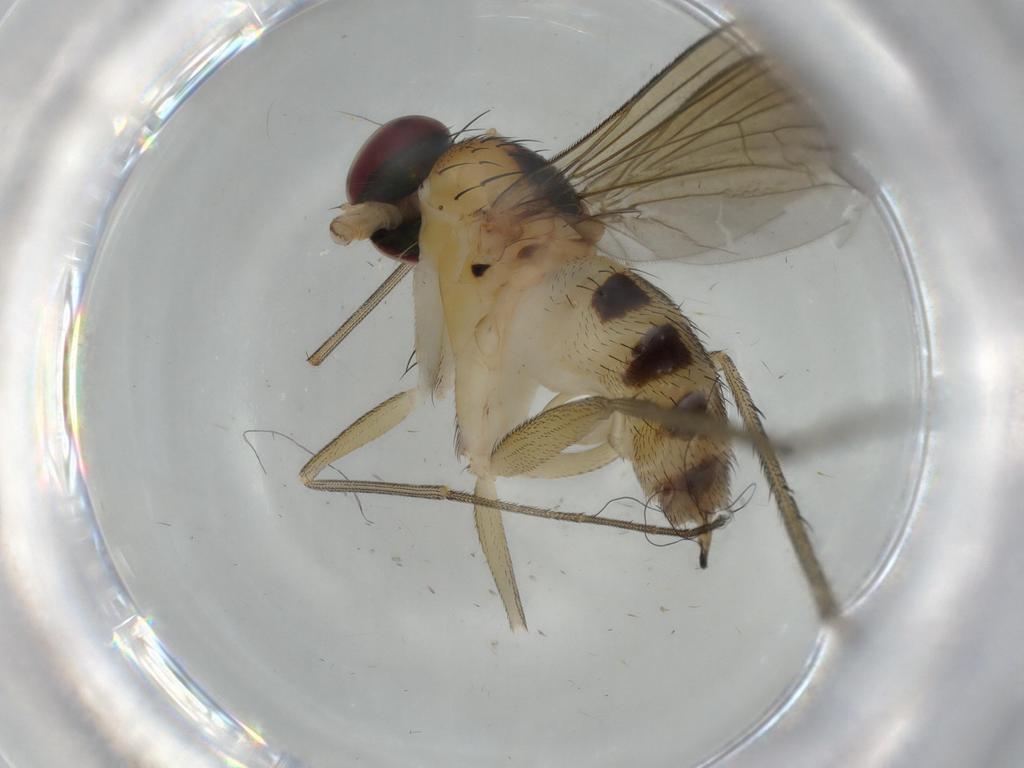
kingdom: Animalia
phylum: Arthropoda
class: Insecta
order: Diptera
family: Dolichopodidae
